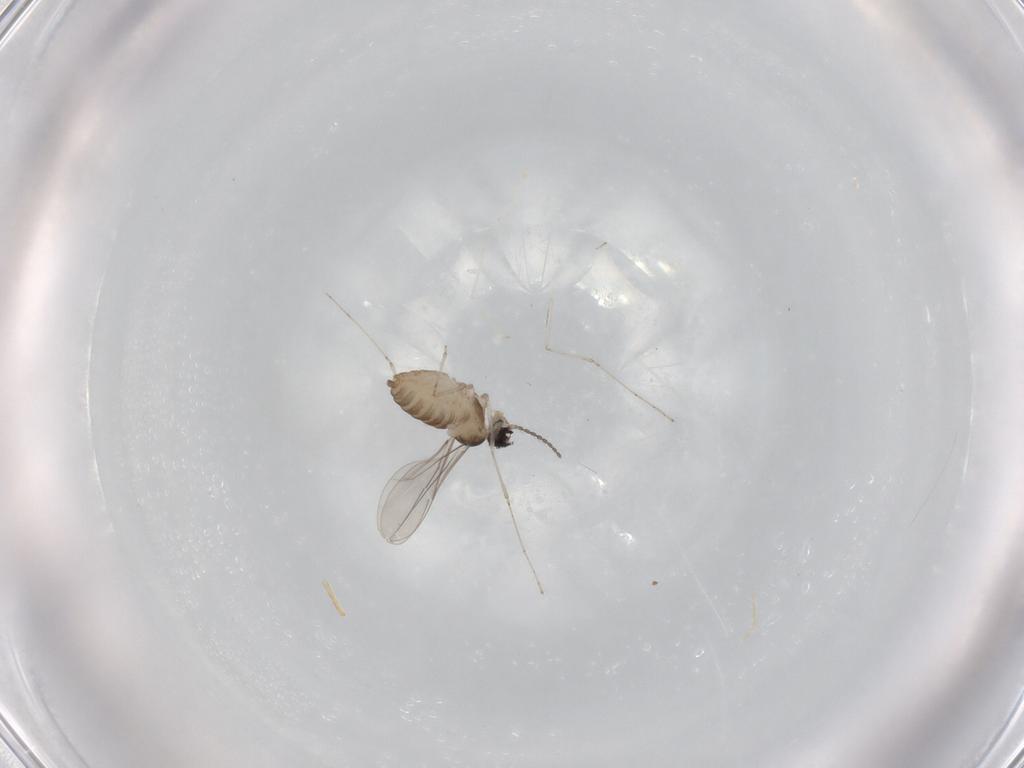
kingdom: Animalia
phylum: Arthropoda
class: Insecta
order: Diptera
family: Cecidomyiidae
